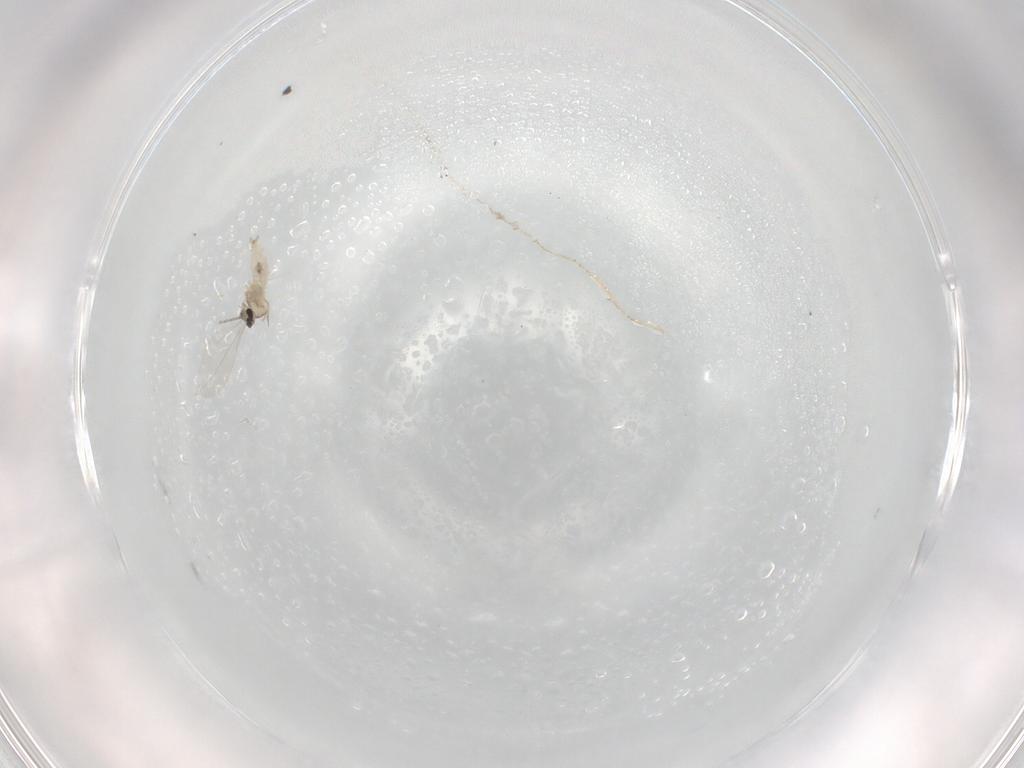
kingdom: Animalia
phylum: Arthropoda
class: Insecta
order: Diptera
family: Cecidomyiidae
